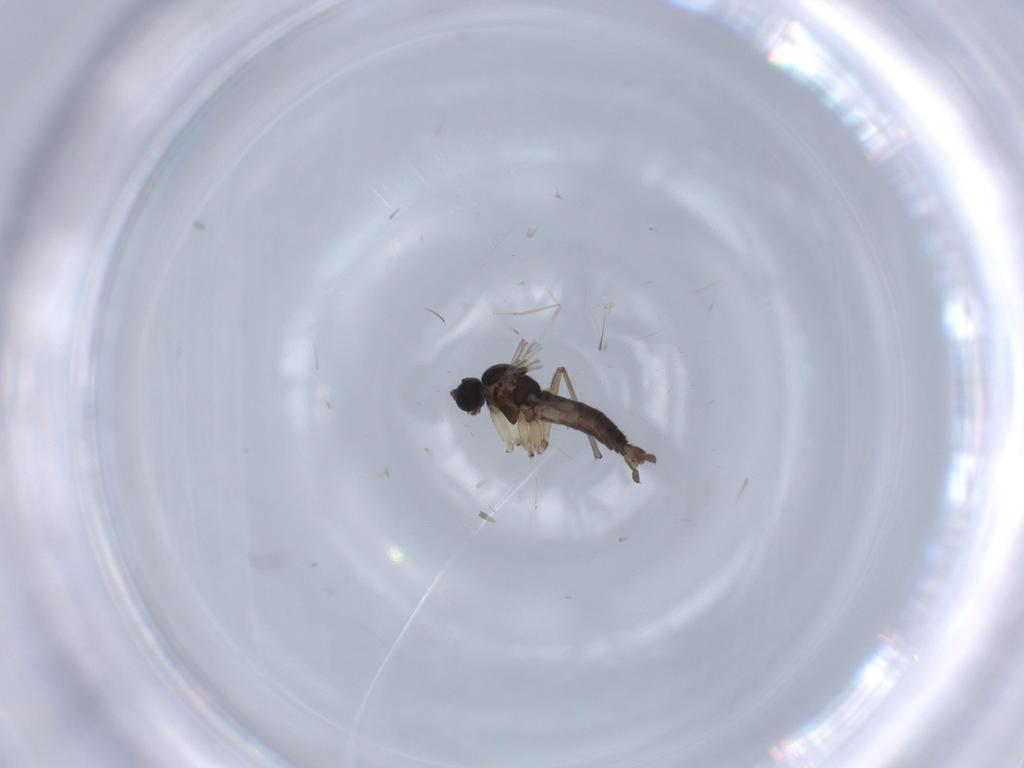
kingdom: Animalia
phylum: Arthropoda
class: Insecta
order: Diptera
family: Sciaridae
